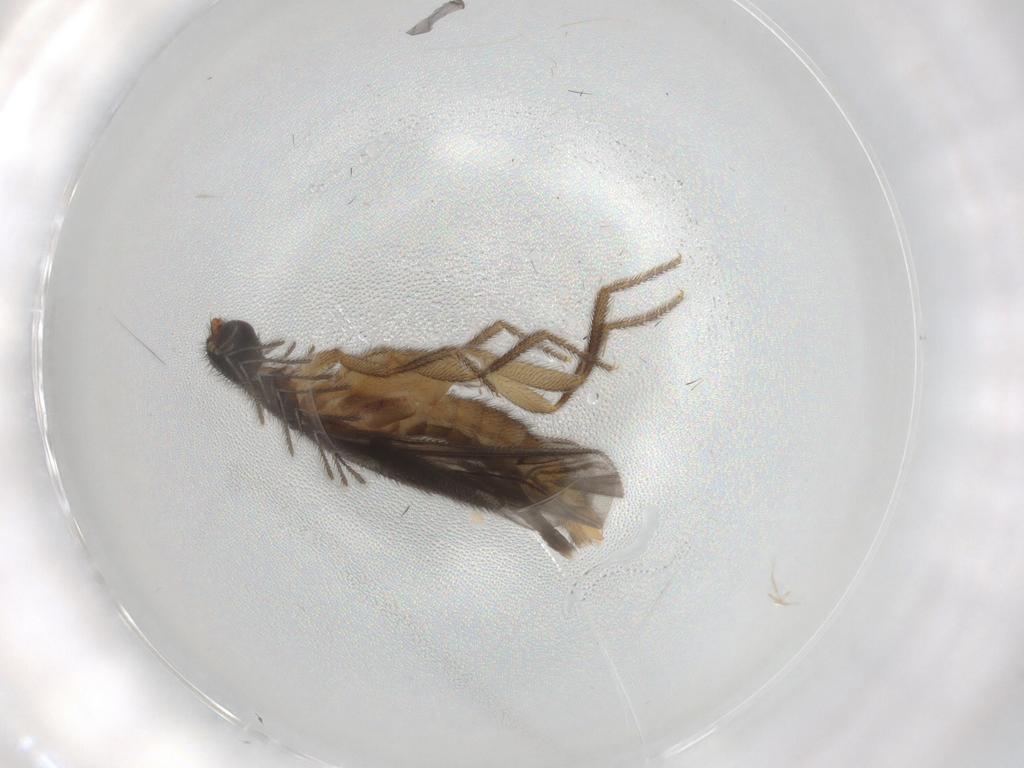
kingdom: Animalia
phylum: Arthropoda
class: Insecta
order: Coleoptera
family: Phengodidae
